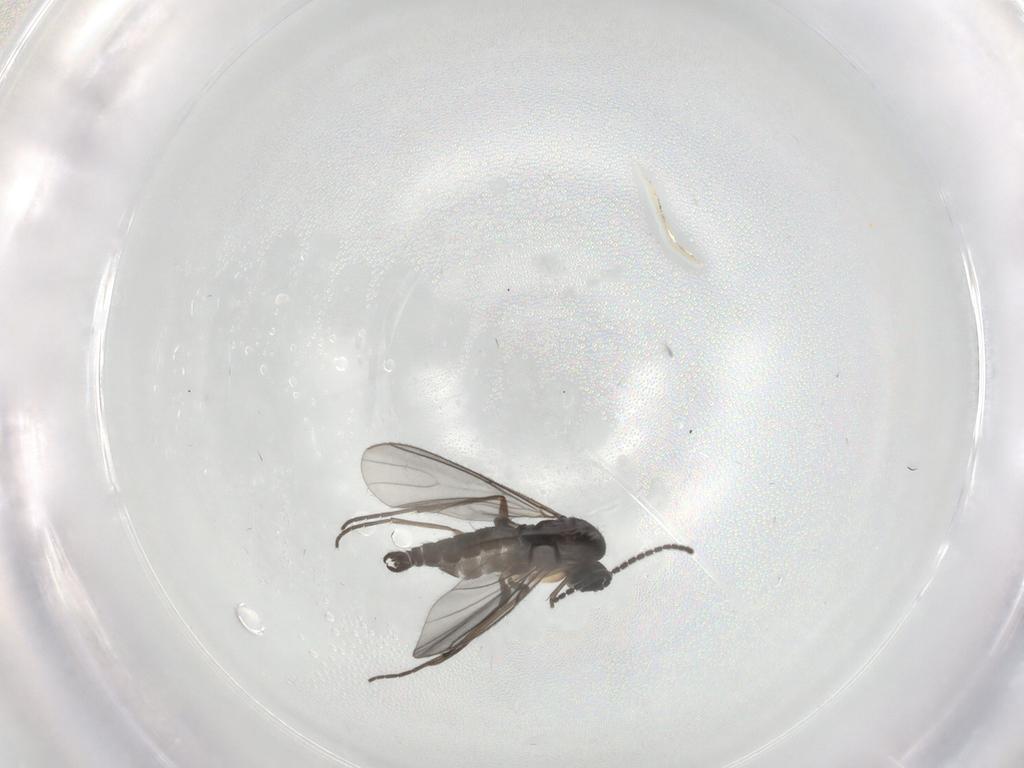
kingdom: Animalia
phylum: Arthropoda
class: Insecta
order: Diptera
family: Sciaridae
